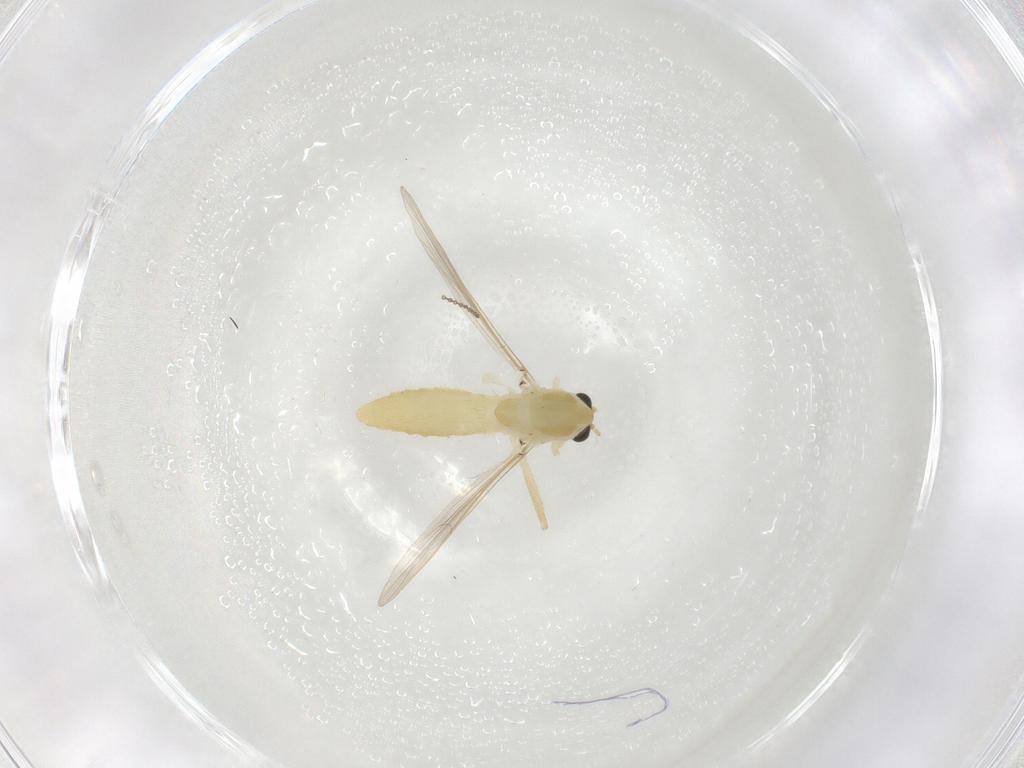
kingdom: Animalia
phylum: Arthropoda
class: Insecta
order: Diptera
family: Chironomidae
